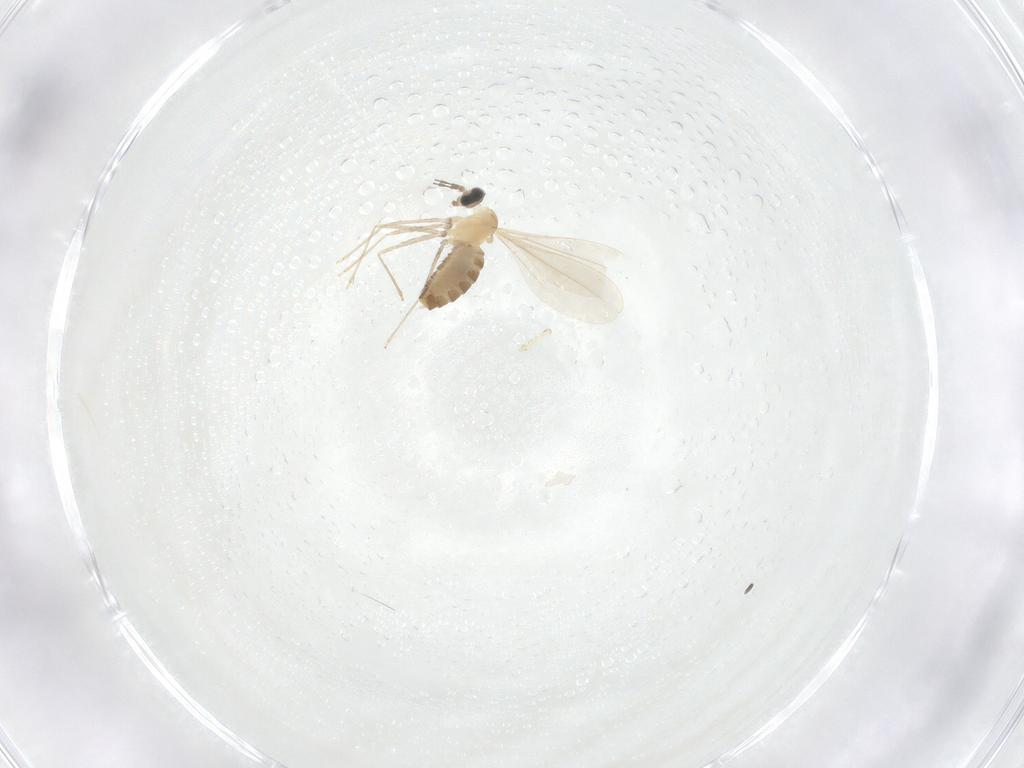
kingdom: Animalia
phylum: Arthropoda
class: Insecta
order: Diptera
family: Cecidomyiidae
